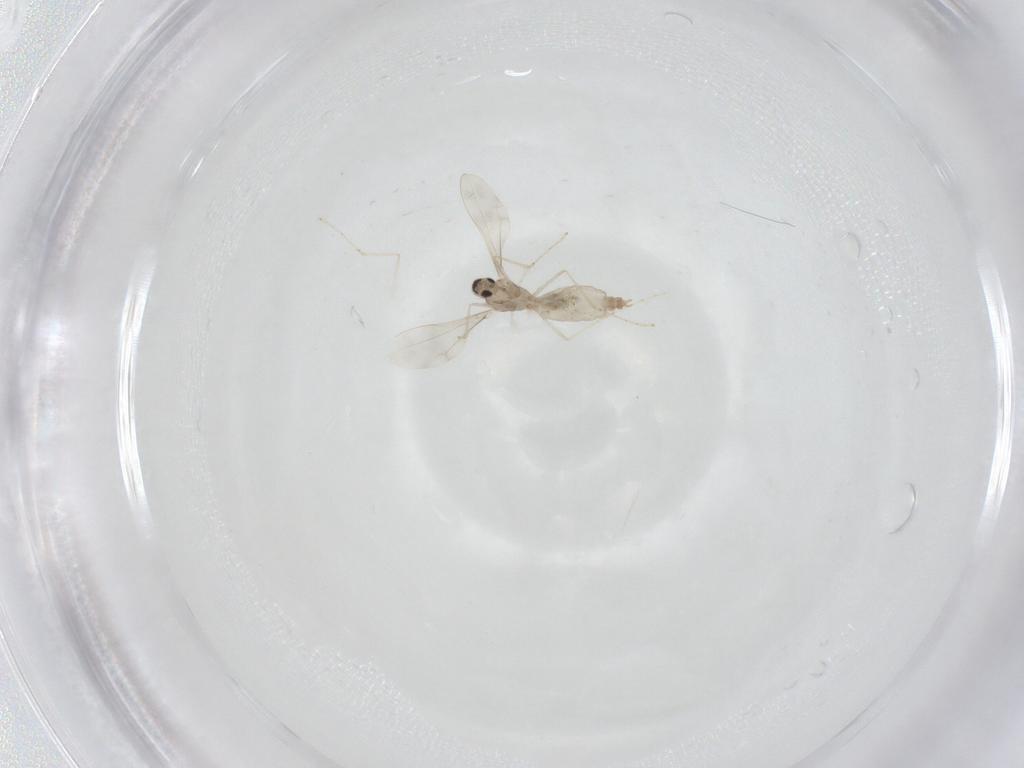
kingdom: Animalia
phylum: Arthropoda
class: Insecta
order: Diptera
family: Cecidomyiidae
